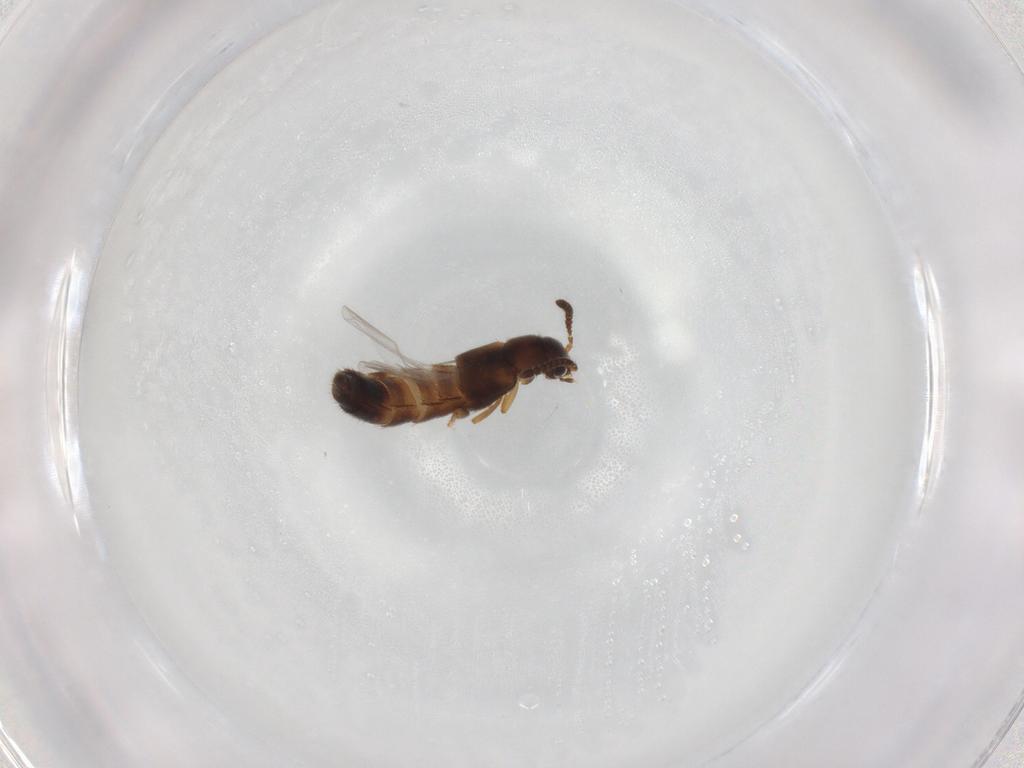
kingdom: Animalia
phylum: Arthropoda
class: Insecta
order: Coleoptera
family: Staphylinidae
